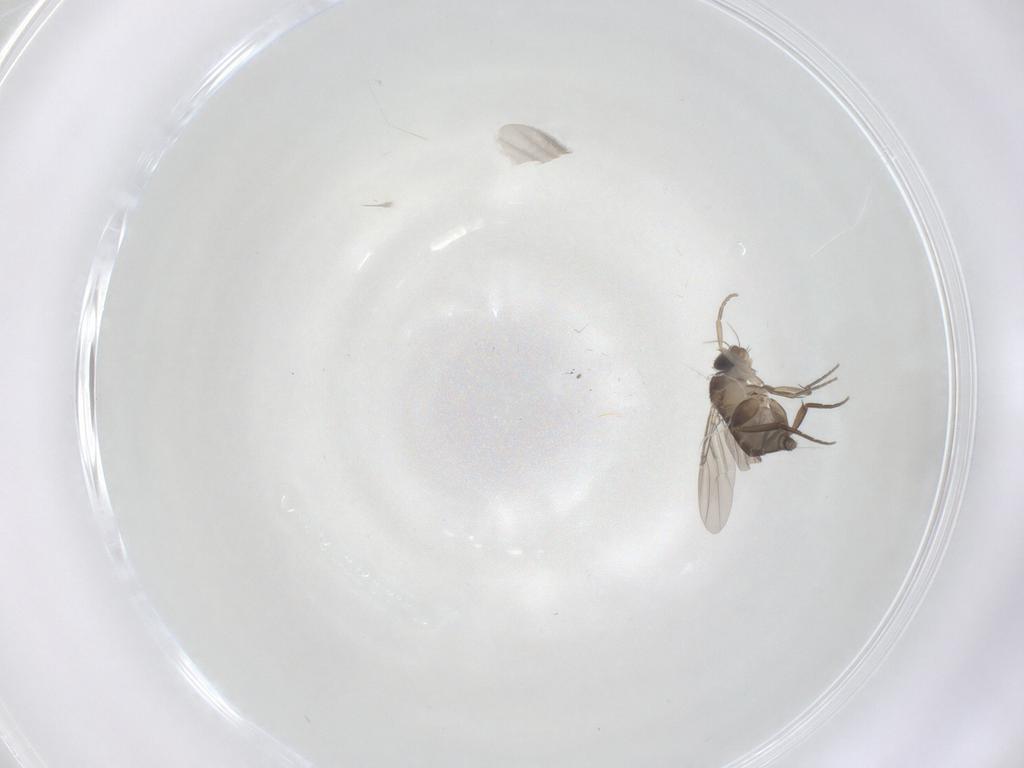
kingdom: Animalia
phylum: Arthropoda
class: Insecta
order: Diptera
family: Phoridae
